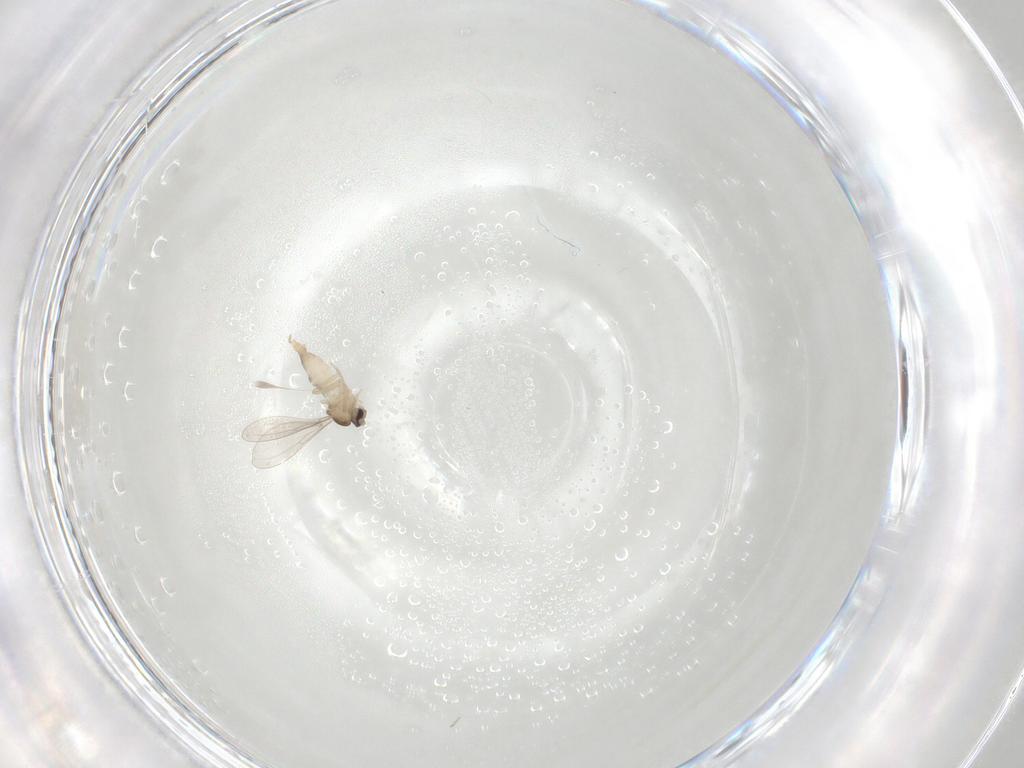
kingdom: Animalia
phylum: Arthropoda
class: Insecta
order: Diptera
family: Cecidomyiidae
